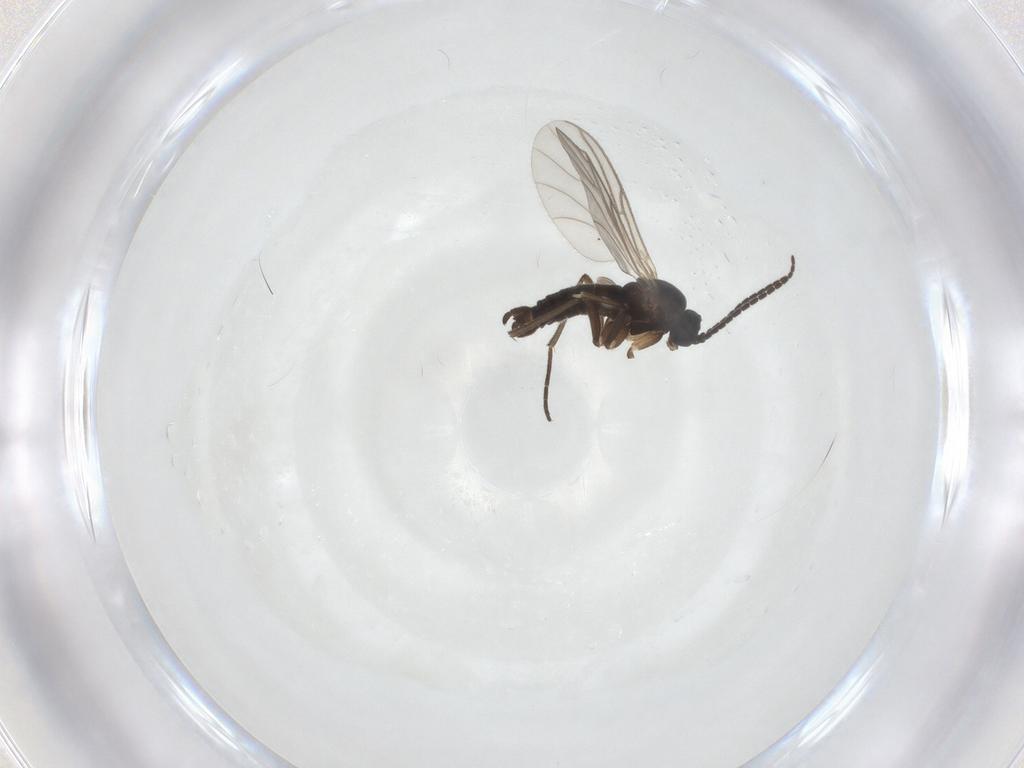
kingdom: Animalia
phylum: Arthropoda
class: Insecta
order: Diptera
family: Sciaridae
